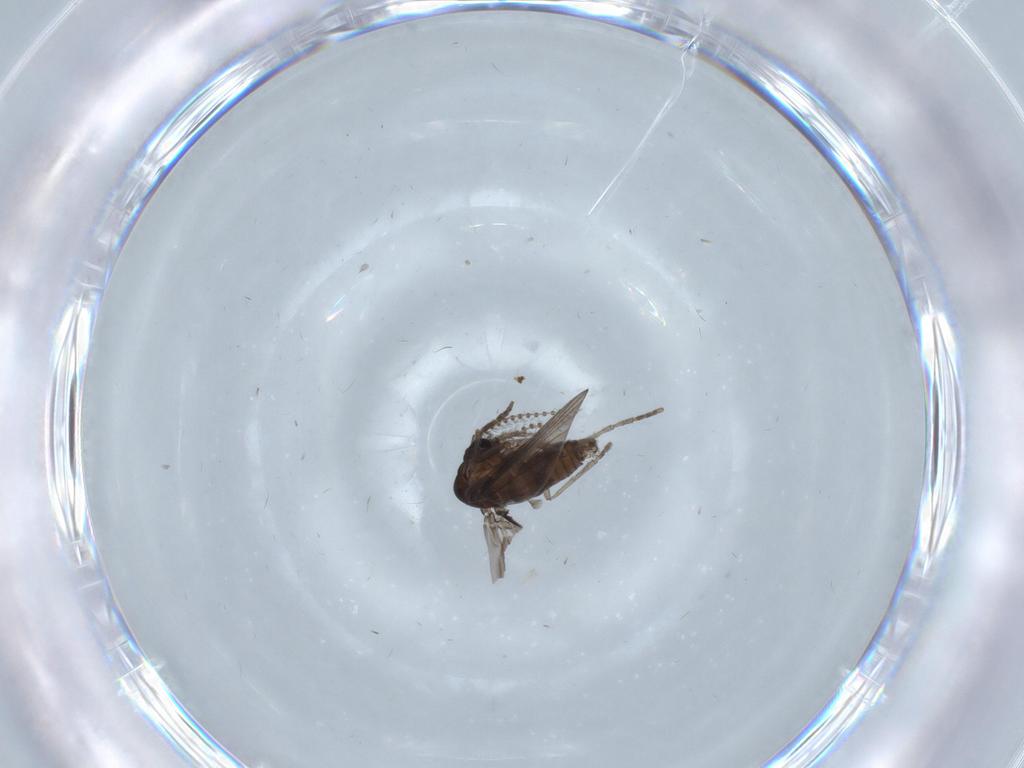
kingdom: Animalia
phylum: Arthropoda
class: Insecta
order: Diptera
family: Psychodidae
